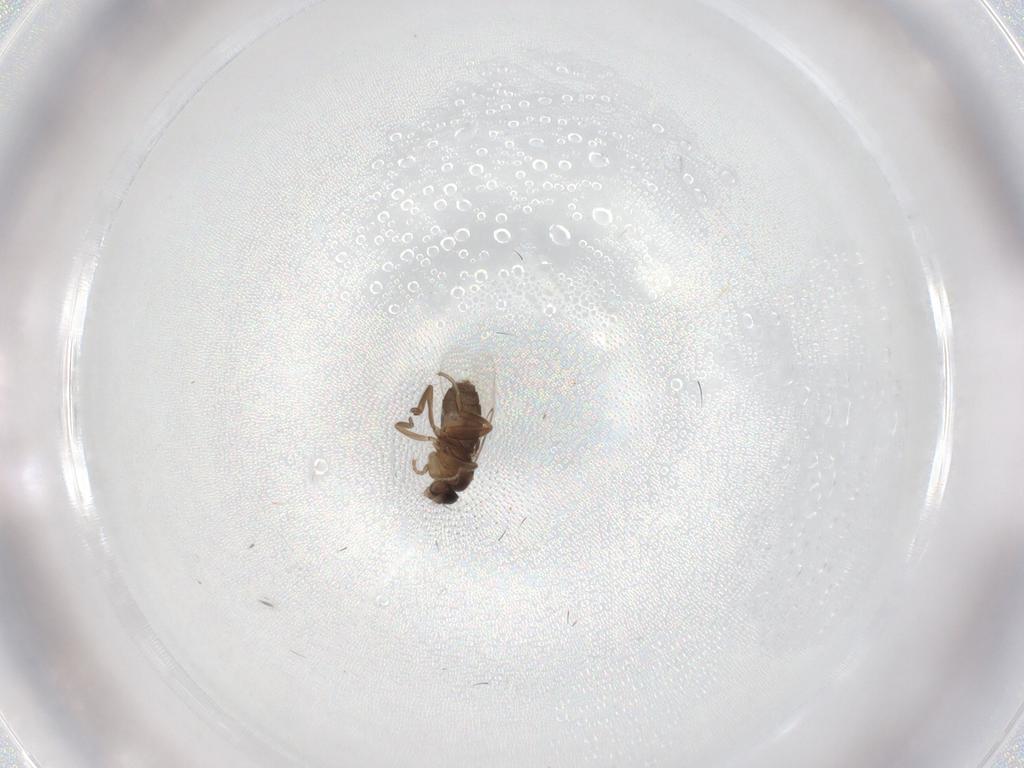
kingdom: Animalia
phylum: Arthropoda
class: Insecta
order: Diptera
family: Phoridae
